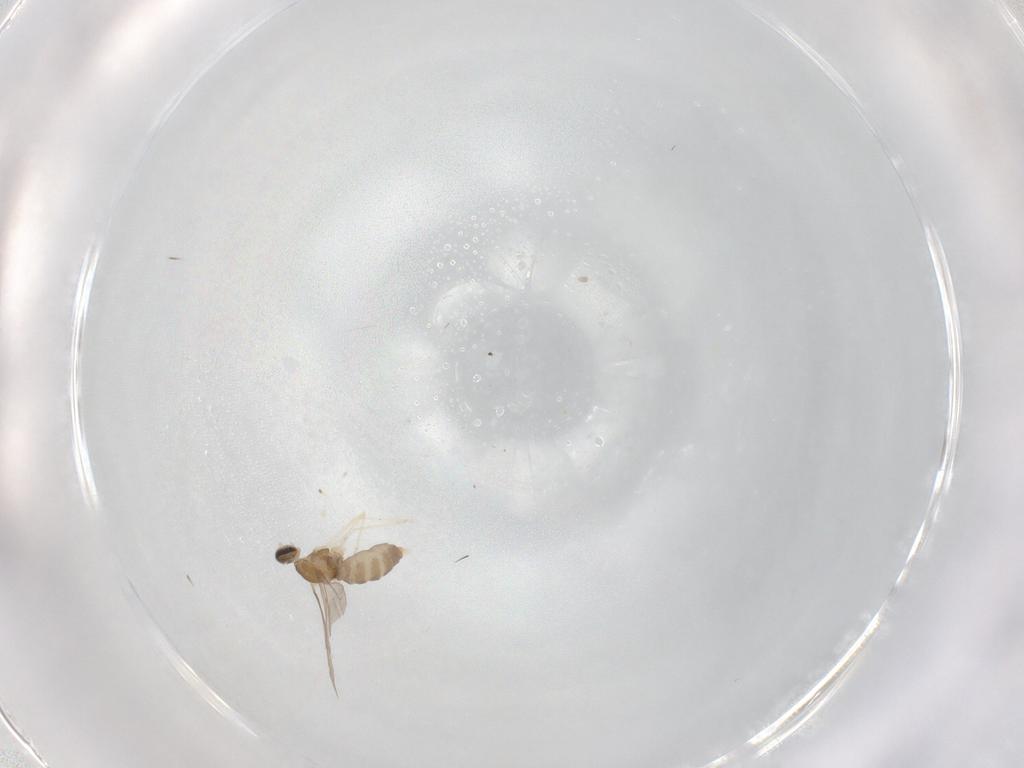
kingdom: Animalia
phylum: Arthropoda
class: Insecta
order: Diptera
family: Cecidomyiidae
